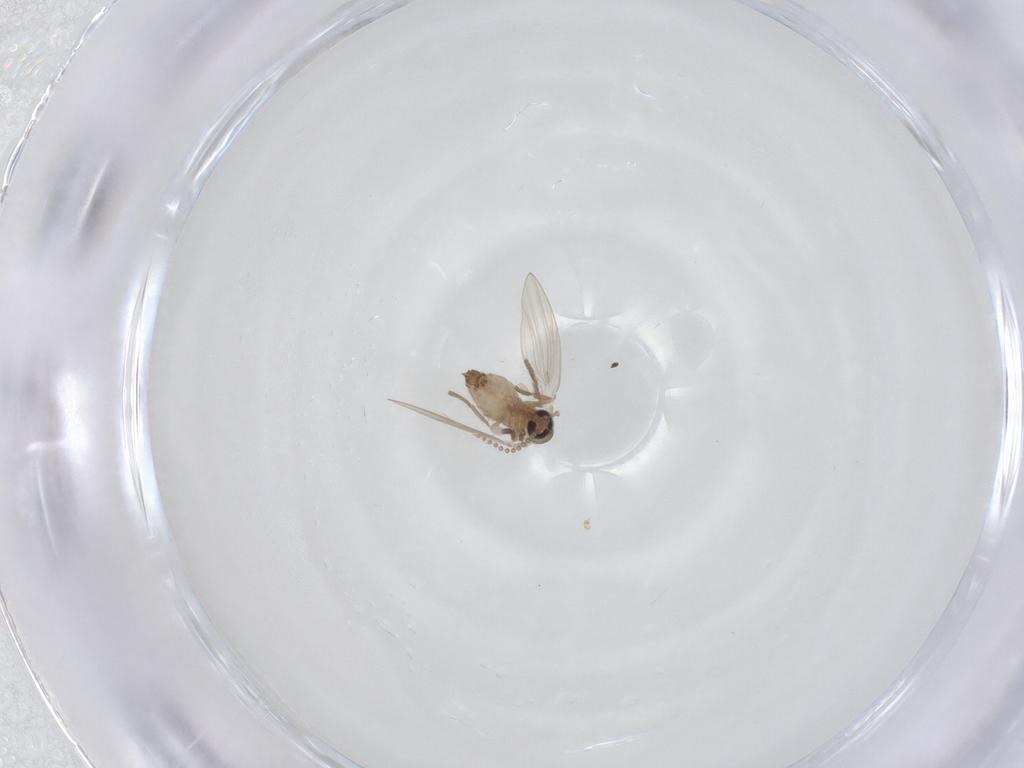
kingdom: Animalia
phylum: Arthropoda
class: Insecta
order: Diptera
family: Psychodidae
